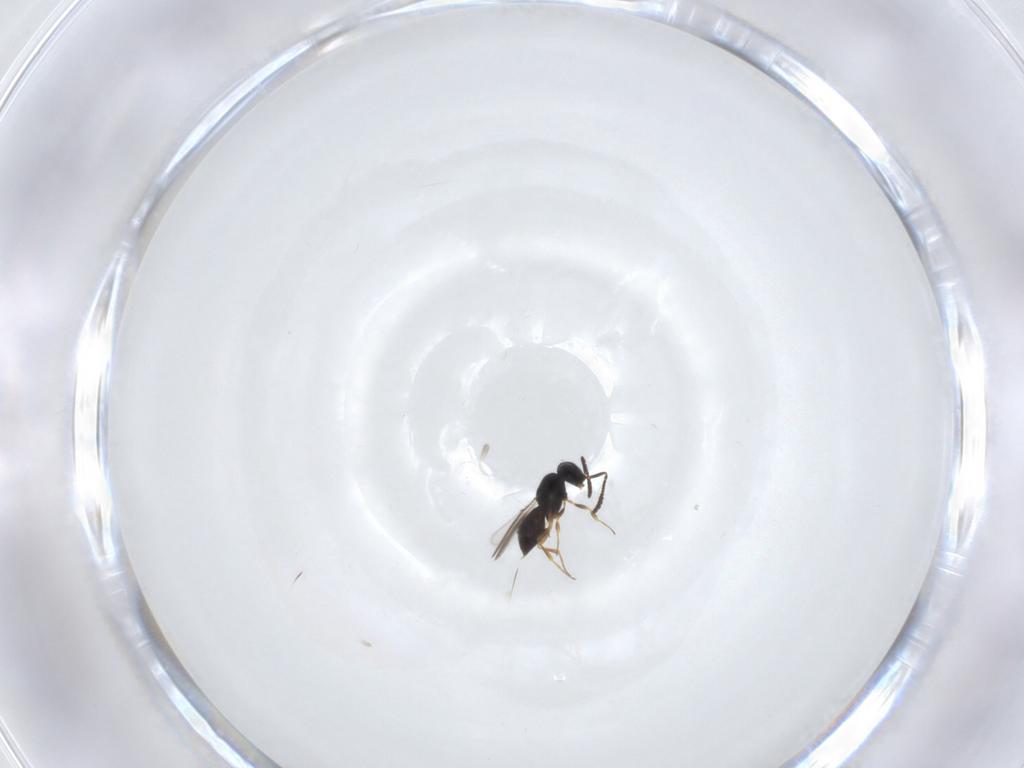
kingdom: Animalia
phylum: Arthropoda
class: Insecta
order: Hymenoptera
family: Scelionidae
